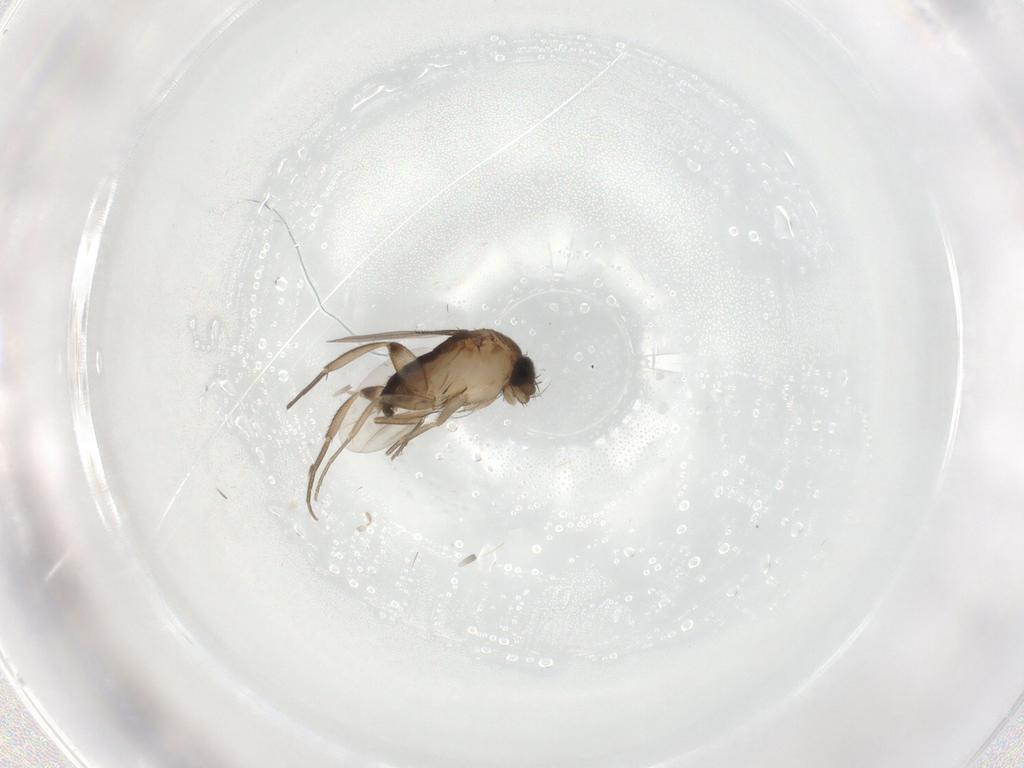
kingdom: Animalia
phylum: Arthropoda
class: Insecta
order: Diptera
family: Phoridae
